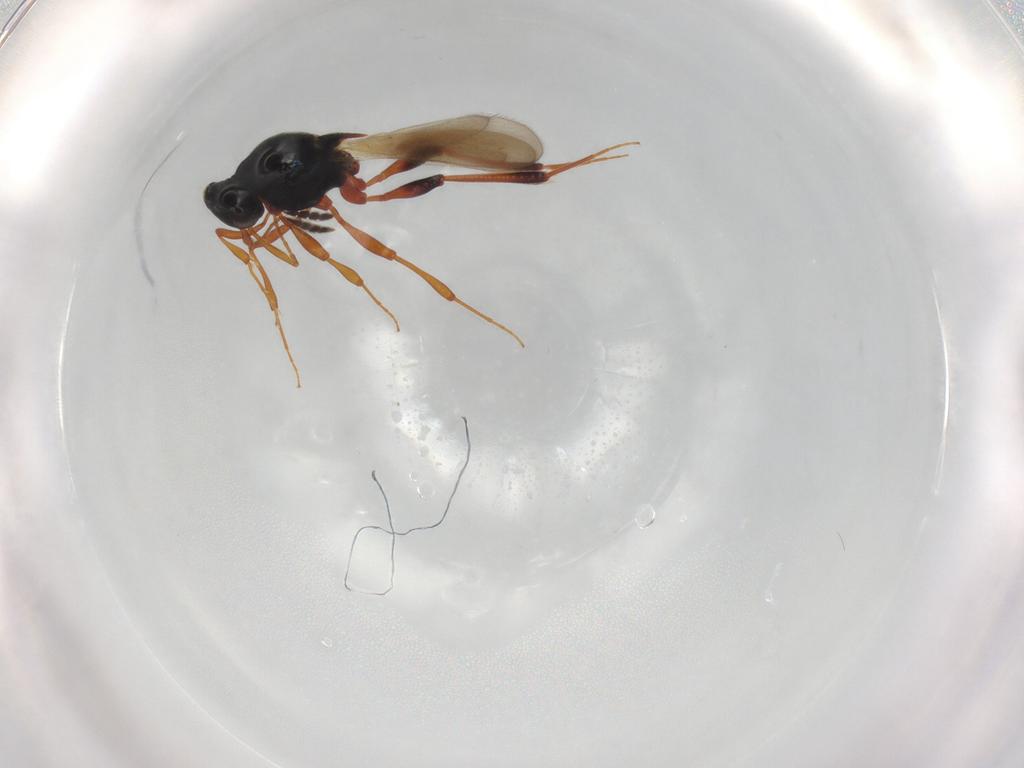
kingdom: Animalia
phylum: Arthropoda
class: Insecta
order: Hymenoptera
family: Platygastridae
